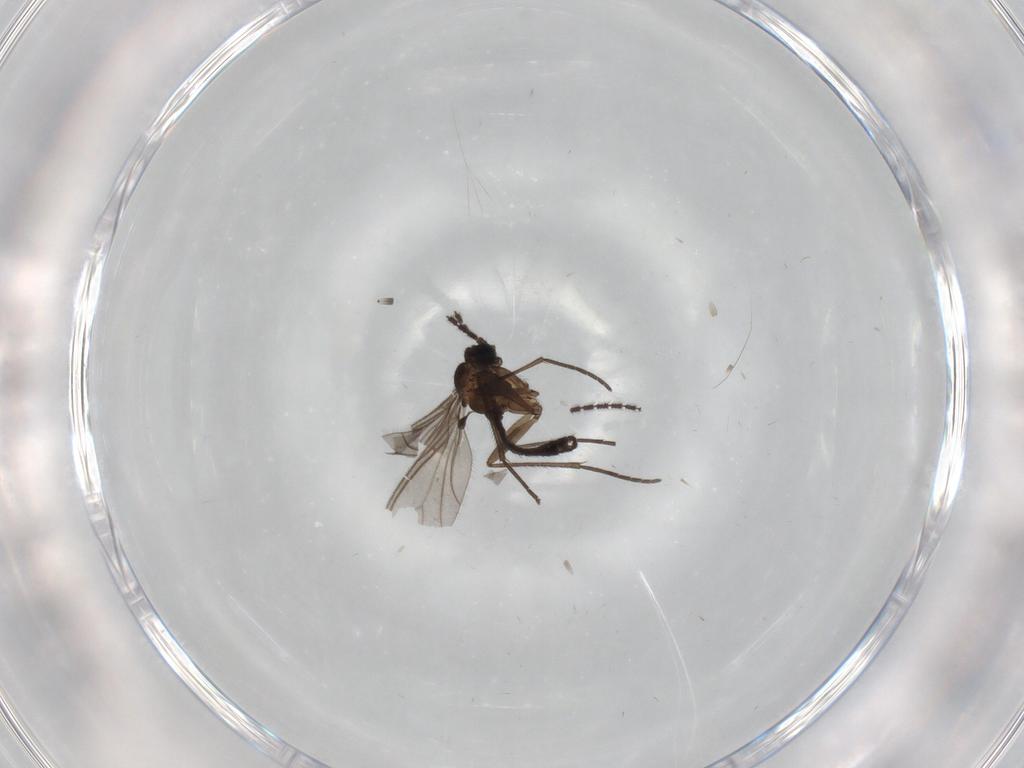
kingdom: Animalia
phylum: Arthropoda
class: Insecta
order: Diptera
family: Sciaridae
